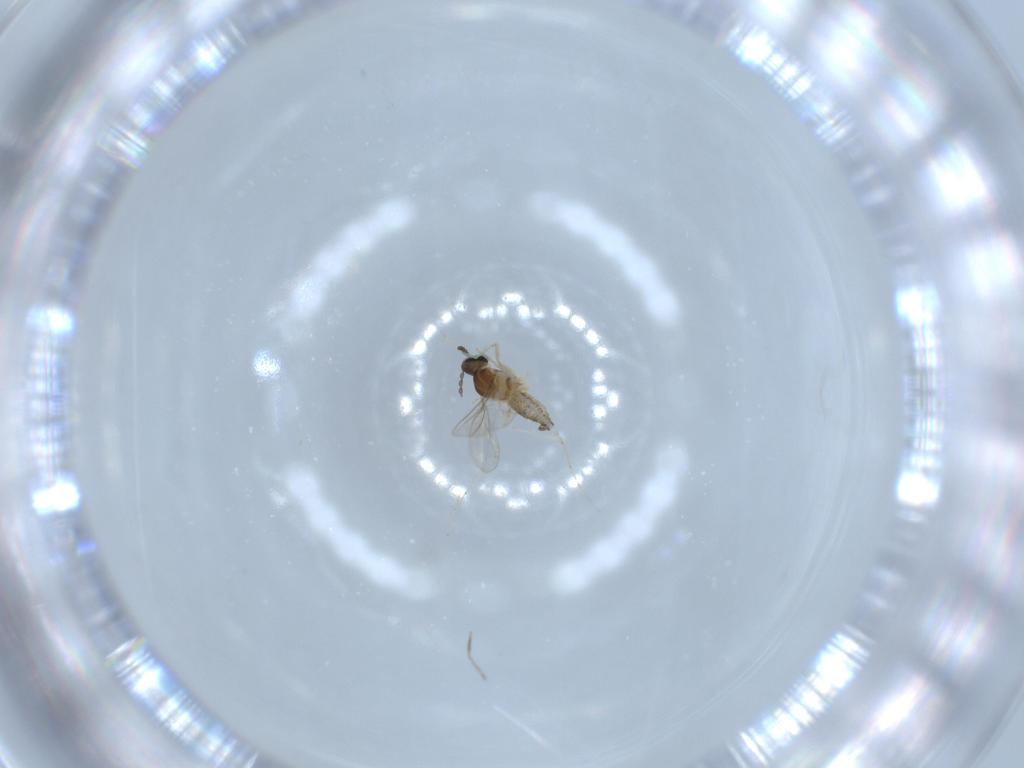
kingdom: Animalia
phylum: Arthropoda
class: Insecta
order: Diptera
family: Cecidomyiidae
